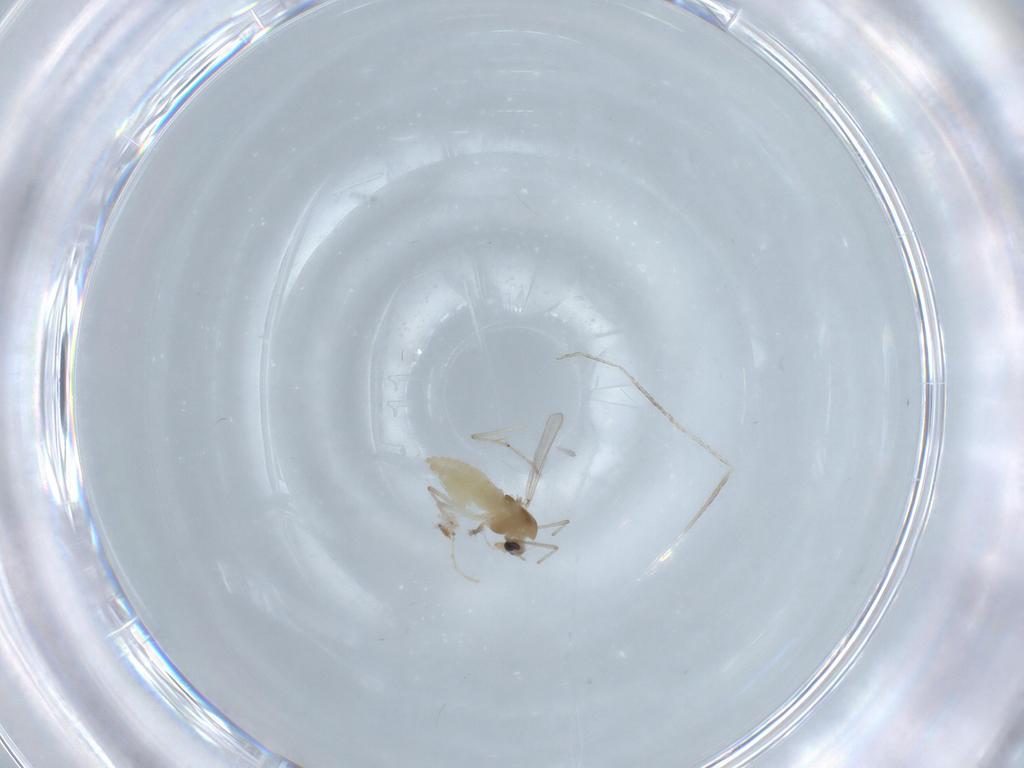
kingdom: Animalia
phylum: Arthropoda
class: Insecta
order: Diptera
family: Chironomidae
